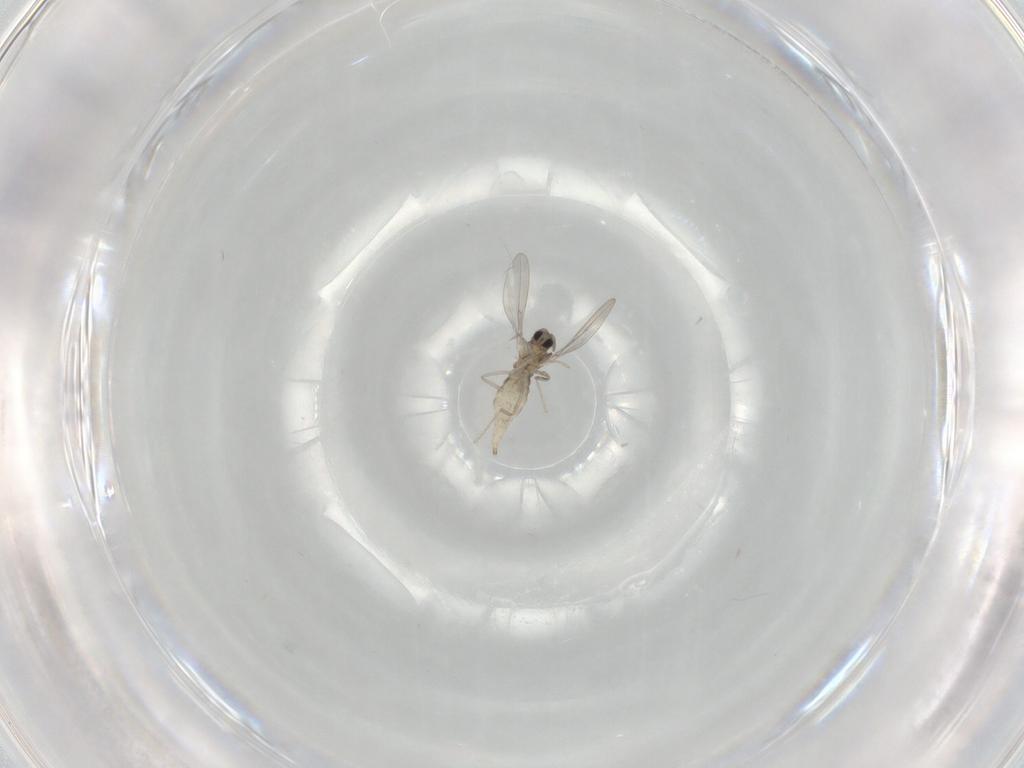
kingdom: Animalia
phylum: Arthropoda
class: Insecta
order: Diptera
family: Cecidomyiidae
